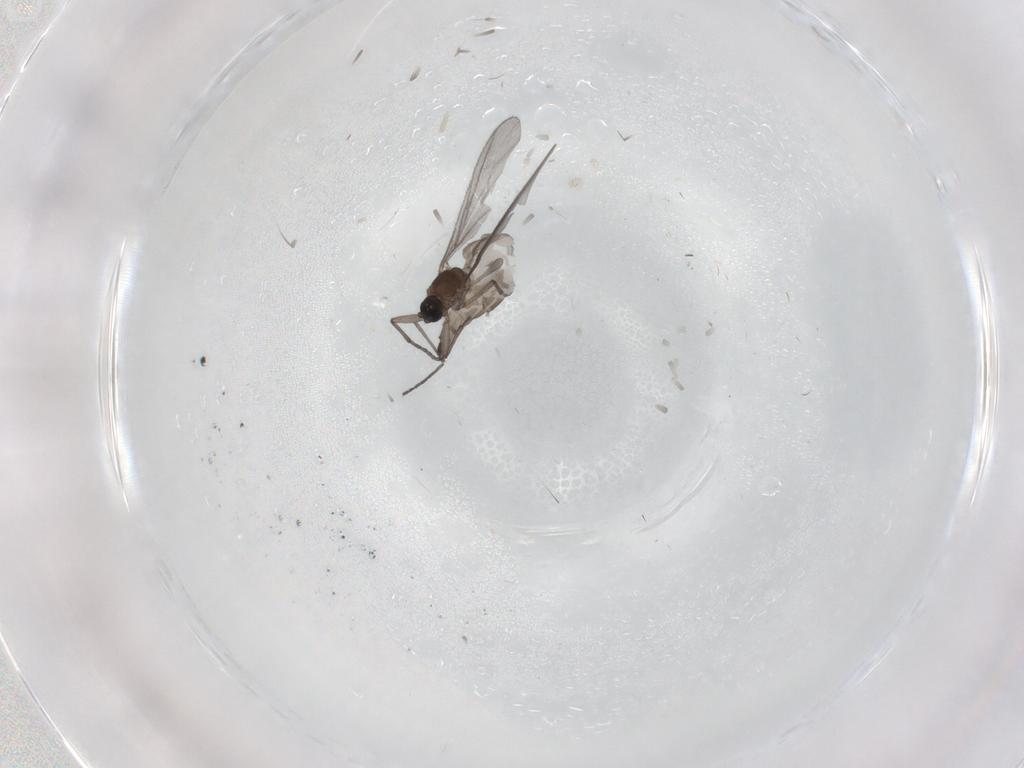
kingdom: Animalia
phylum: Arthropoda
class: Insecta
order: Diptera
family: Sciaridae
